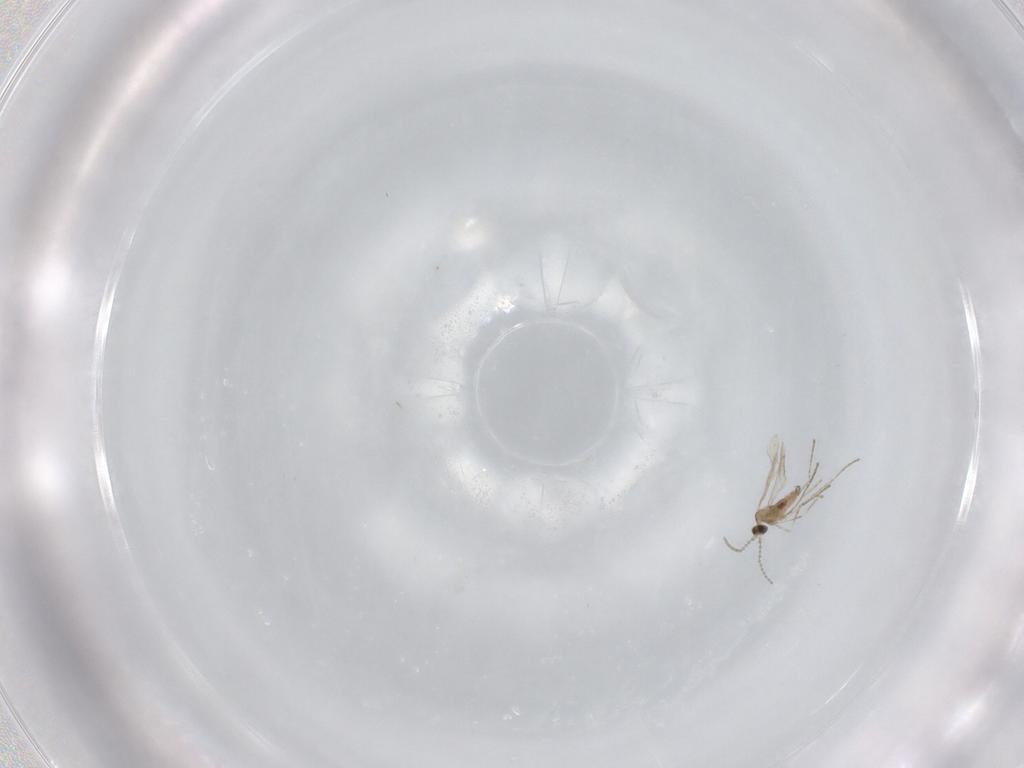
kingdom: Animalia
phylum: Arthropoda
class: Insecta
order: Diptera
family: Cecidomyiidae
